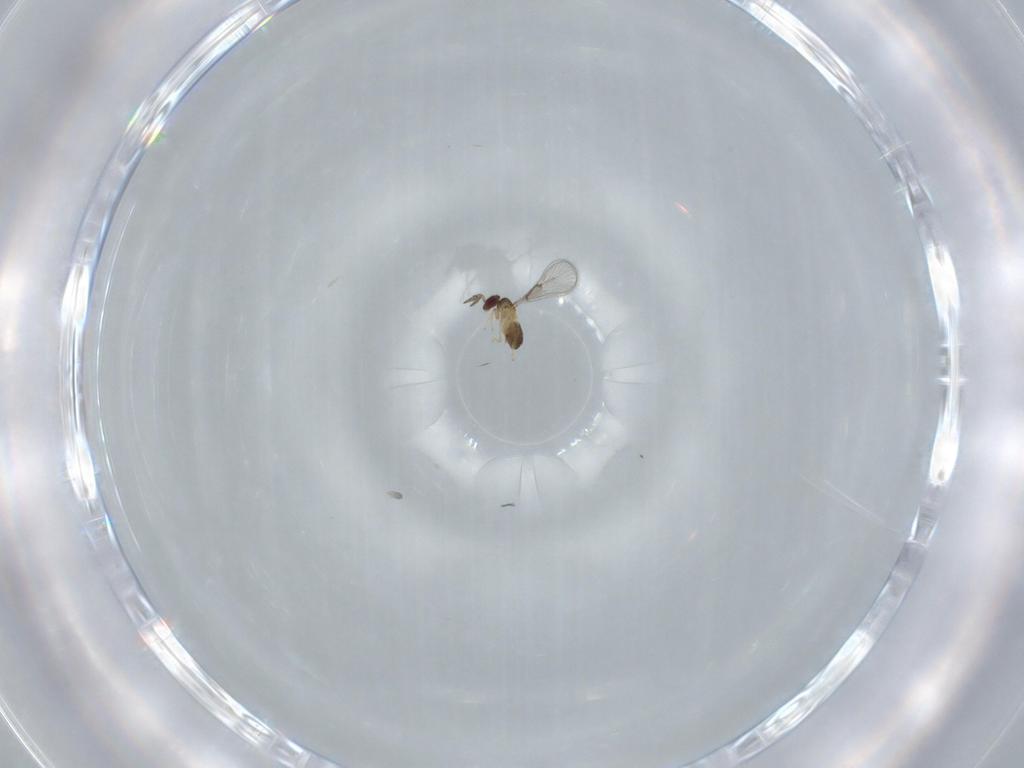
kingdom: Animalia
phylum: Arthropoda
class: Insecta
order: Hymenoptera
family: Trichogrammatidae
